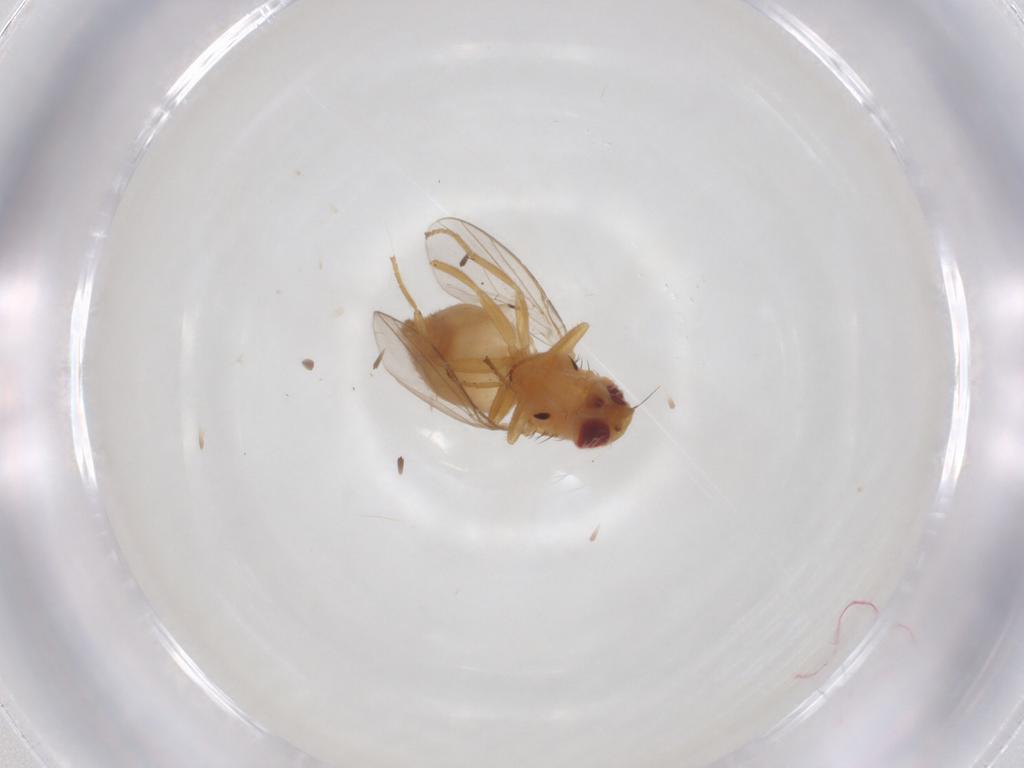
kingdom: Animalia
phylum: Arthropoda
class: Insecta
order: Diptera
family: Chloropidae
